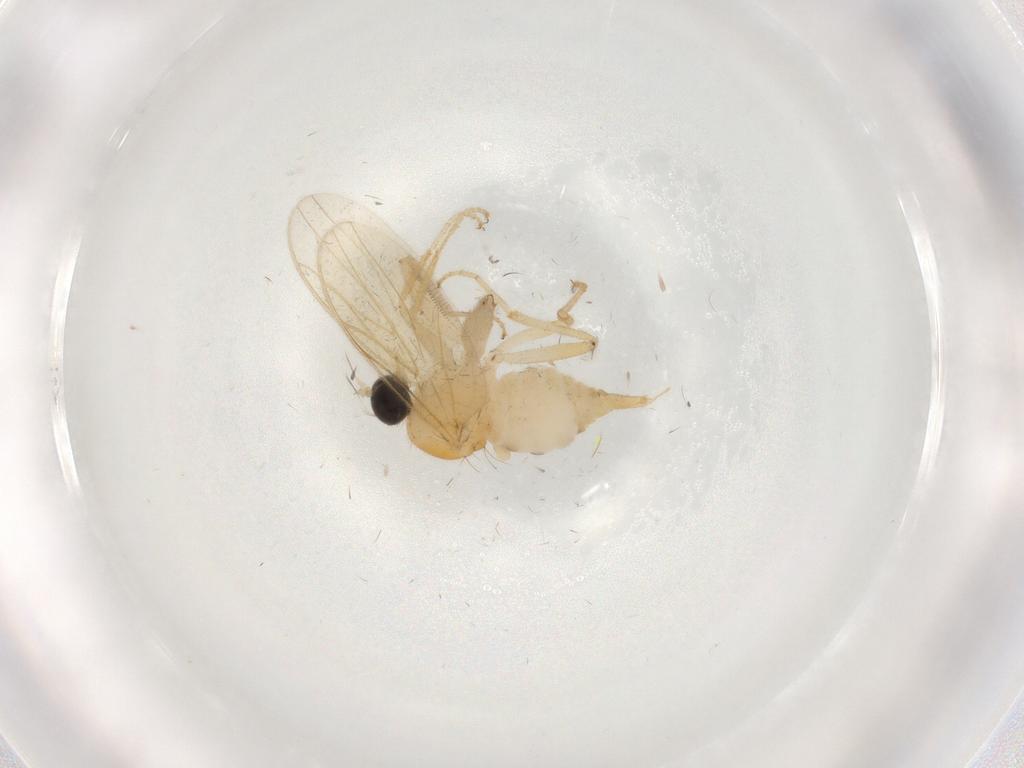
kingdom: Animalia
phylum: Arthropoda
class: Insecta
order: Diptera
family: Sciaridae
